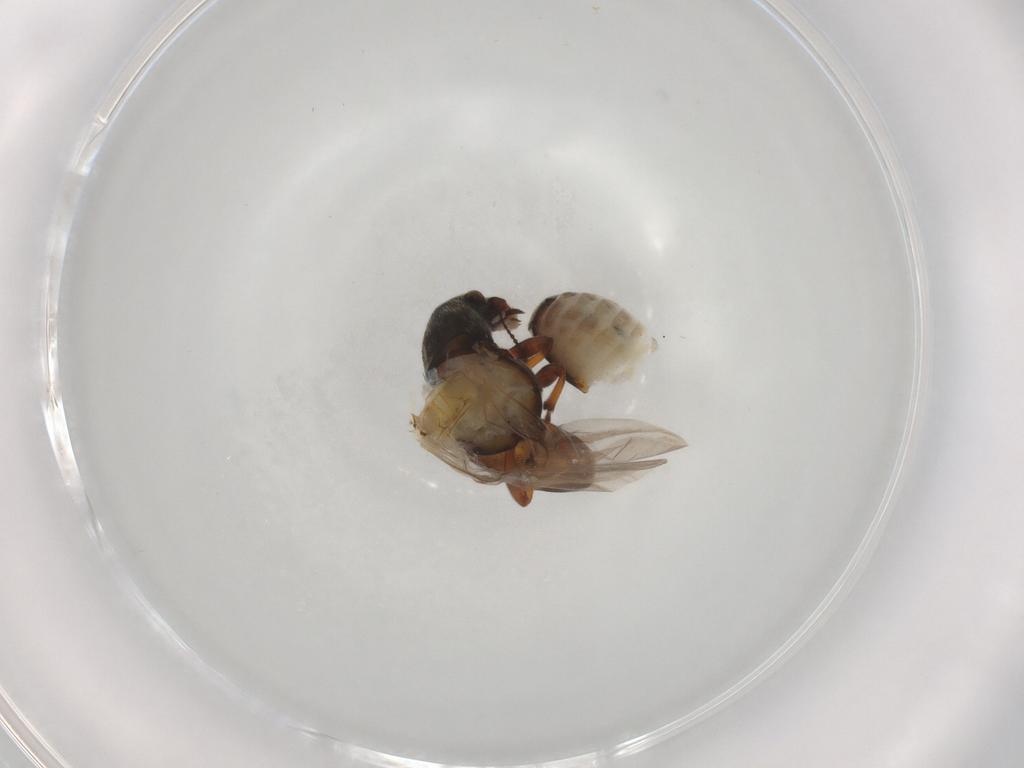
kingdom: Animalia
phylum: Arthropoda
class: Insecta
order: Coleoptera
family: Anthribidae
